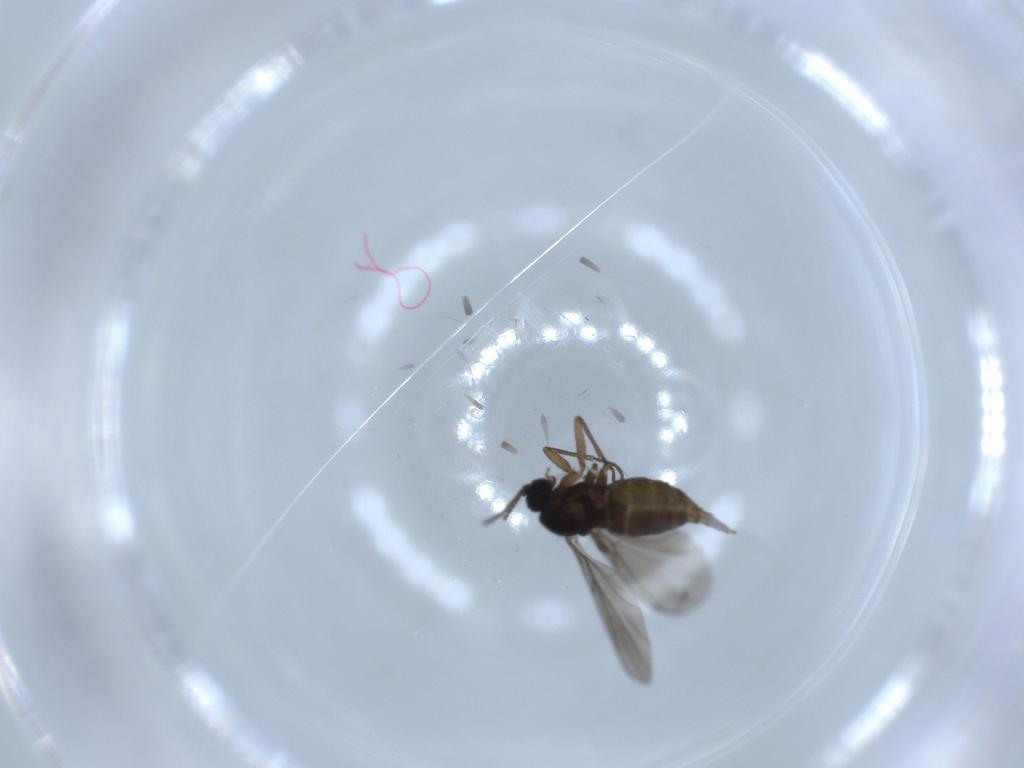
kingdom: Animalia
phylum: Arthropoda
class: Insecta
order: Diptera
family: Sciaridae
